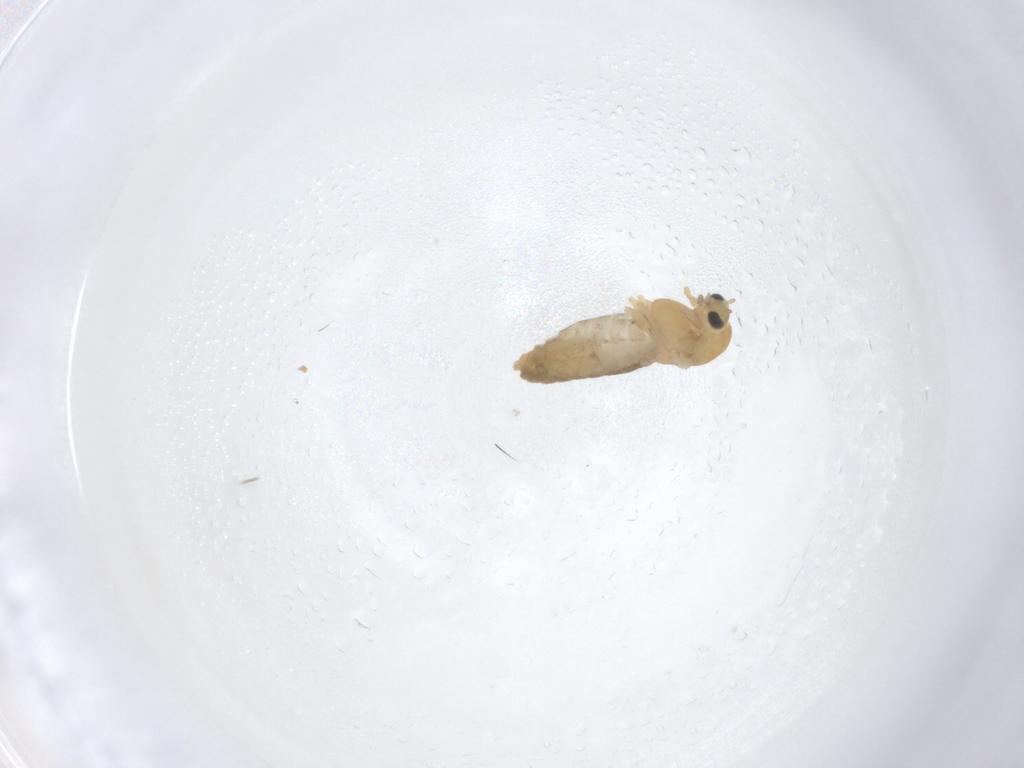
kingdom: Animalia
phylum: Arthropoda
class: Insecta
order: Diptera
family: Chironomidae
